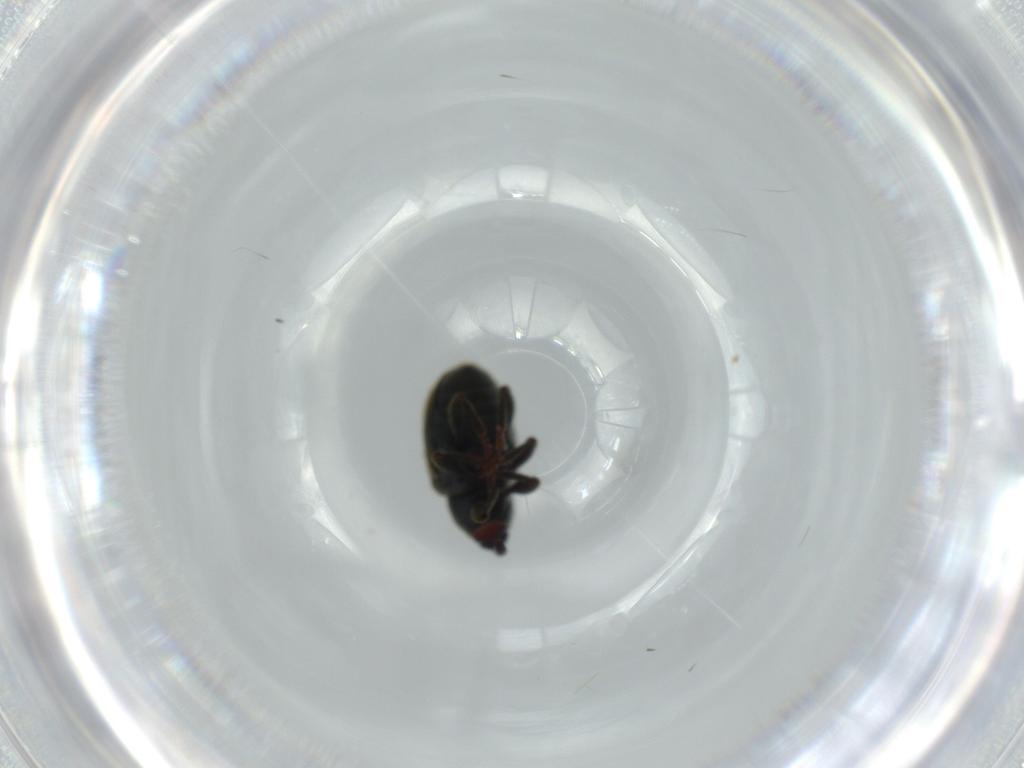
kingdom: Animalia
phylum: Arthropoda
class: Insecta
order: Coleoptera
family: Curculionidae
